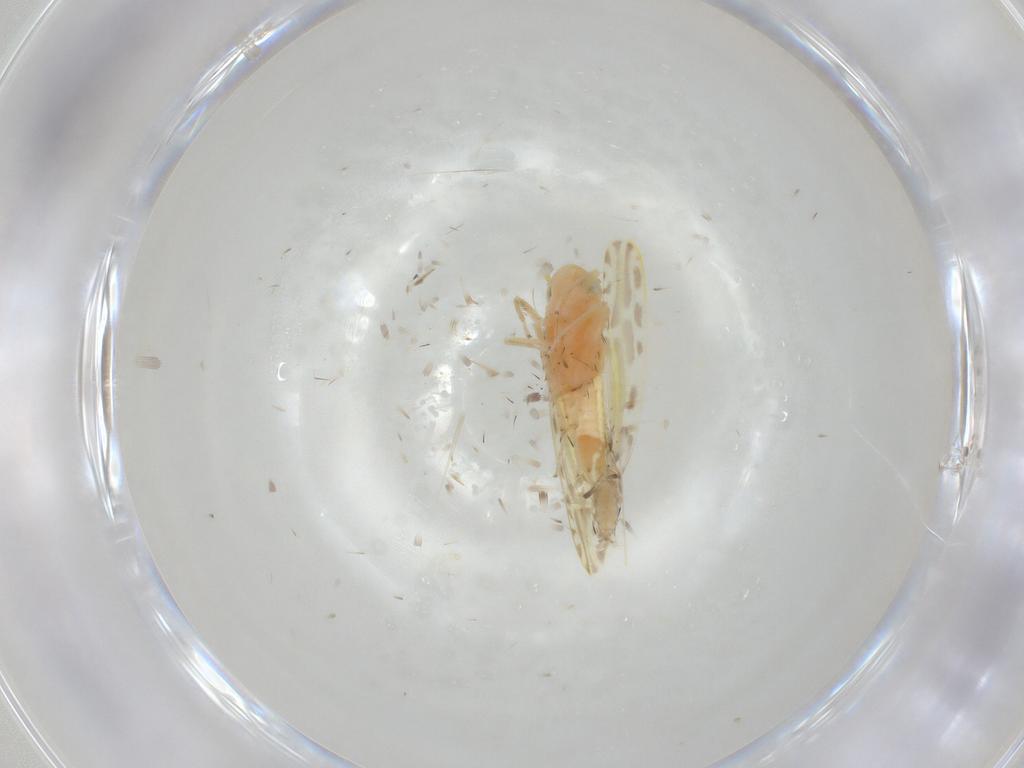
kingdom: Animalia
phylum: Arthropoda
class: Insecta
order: Hemiptera
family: Cicadellidae
